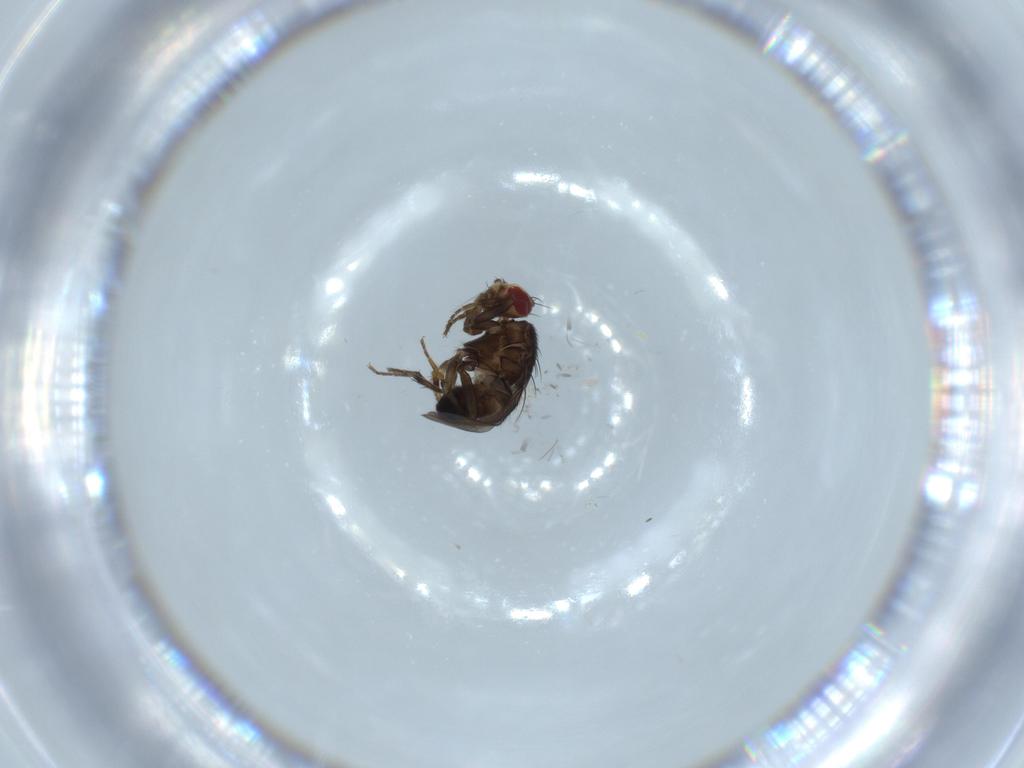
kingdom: Animalia
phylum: Arthropoda
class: Insecta
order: Diptera
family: Sphaeroceridae
